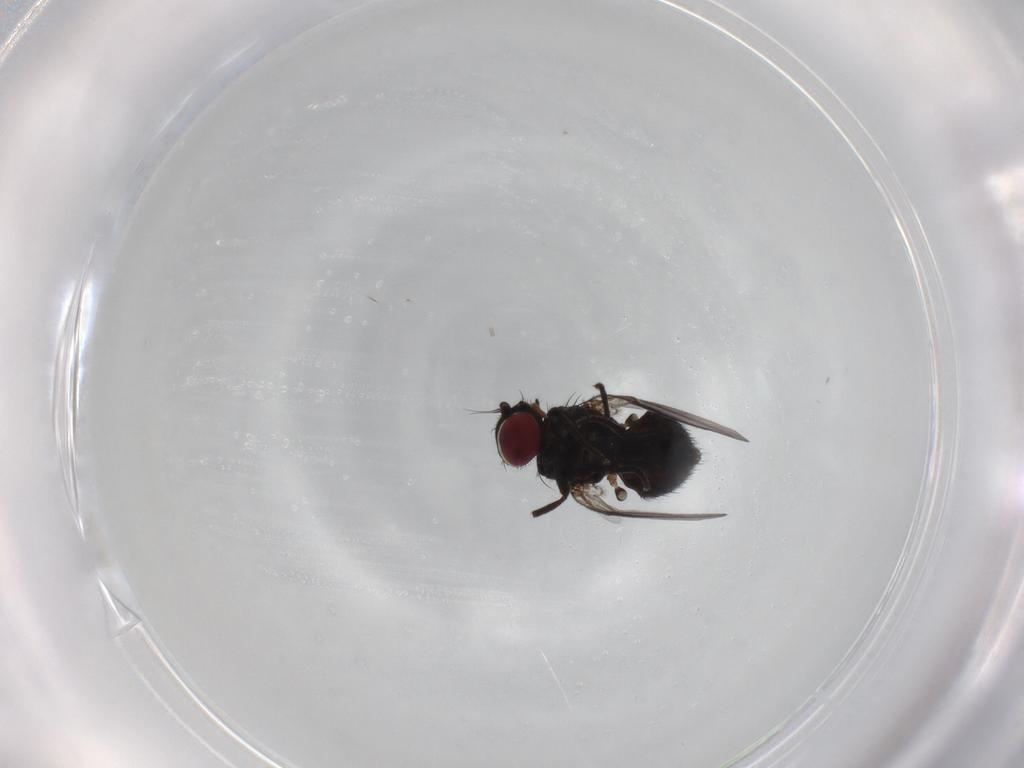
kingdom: Animalia
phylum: Arthropoda
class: Insecta
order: Diptera
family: Agromyzidae
